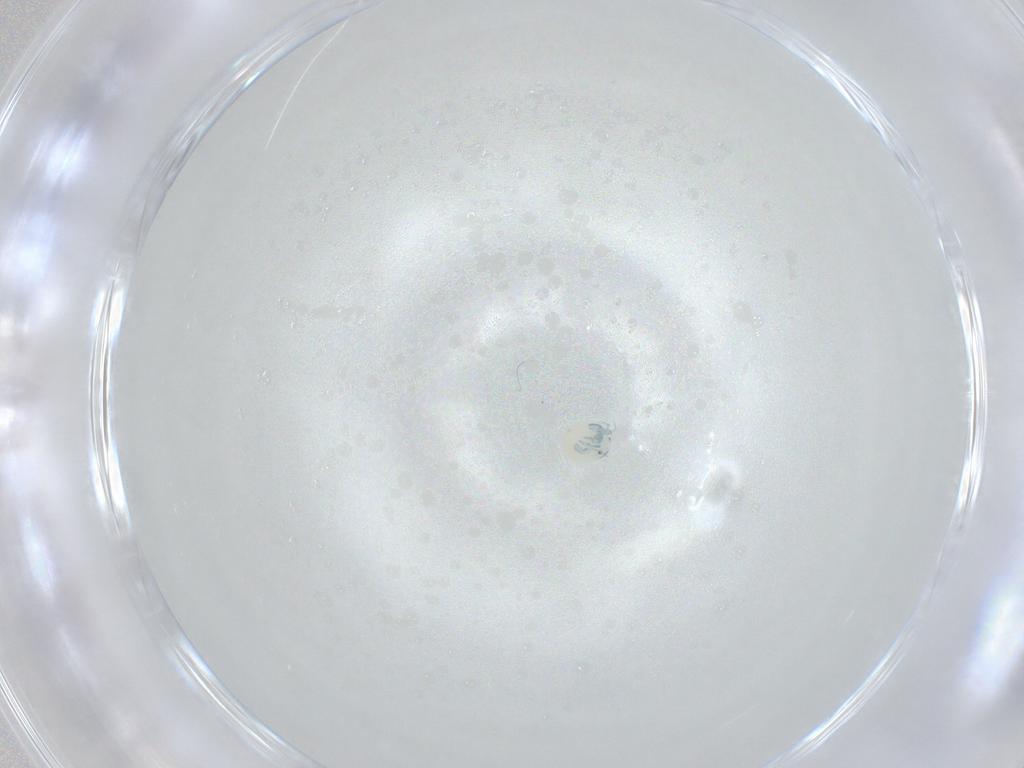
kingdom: Animalia
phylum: Arthropoda
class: Arachnida
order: Trombidiformes
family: Arrenuridae
